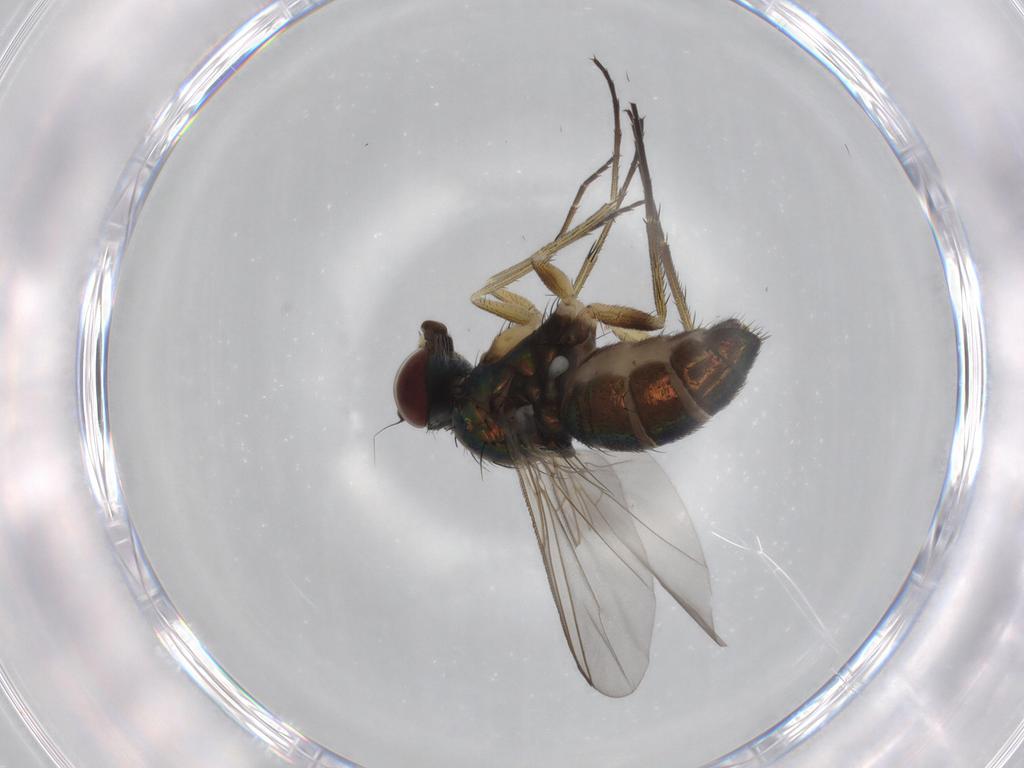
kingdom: Animalia
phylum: Arthropoda
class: Insecta
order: Diptera
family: Dolichopodidae
